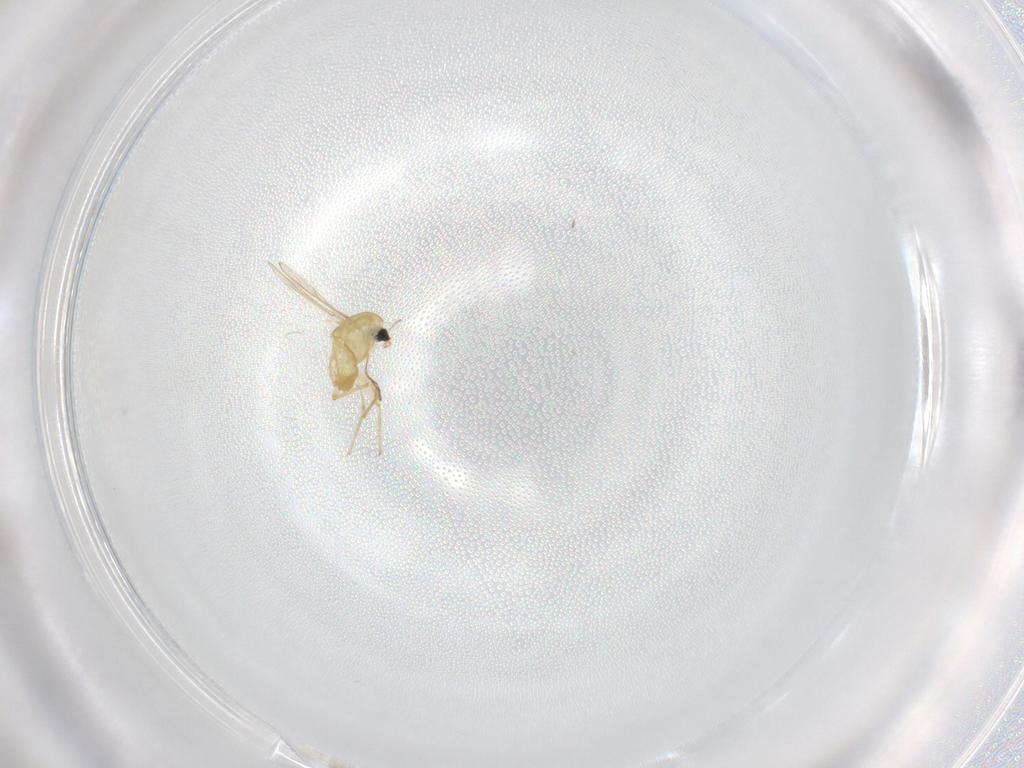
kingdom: Animalia
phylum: Arthropoda
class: Insecta
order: Diptera
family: Chironomidae
